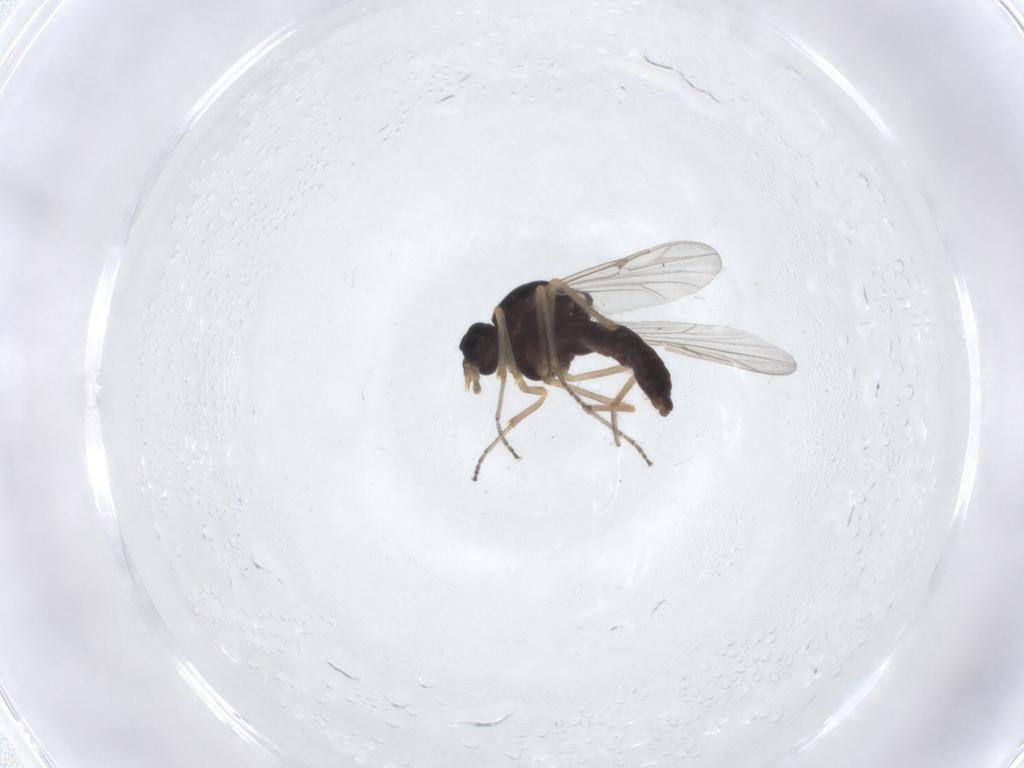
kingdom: Animalia
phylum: Arthropoda
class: Insecta
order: Diptera
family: Ceratopogonidae
